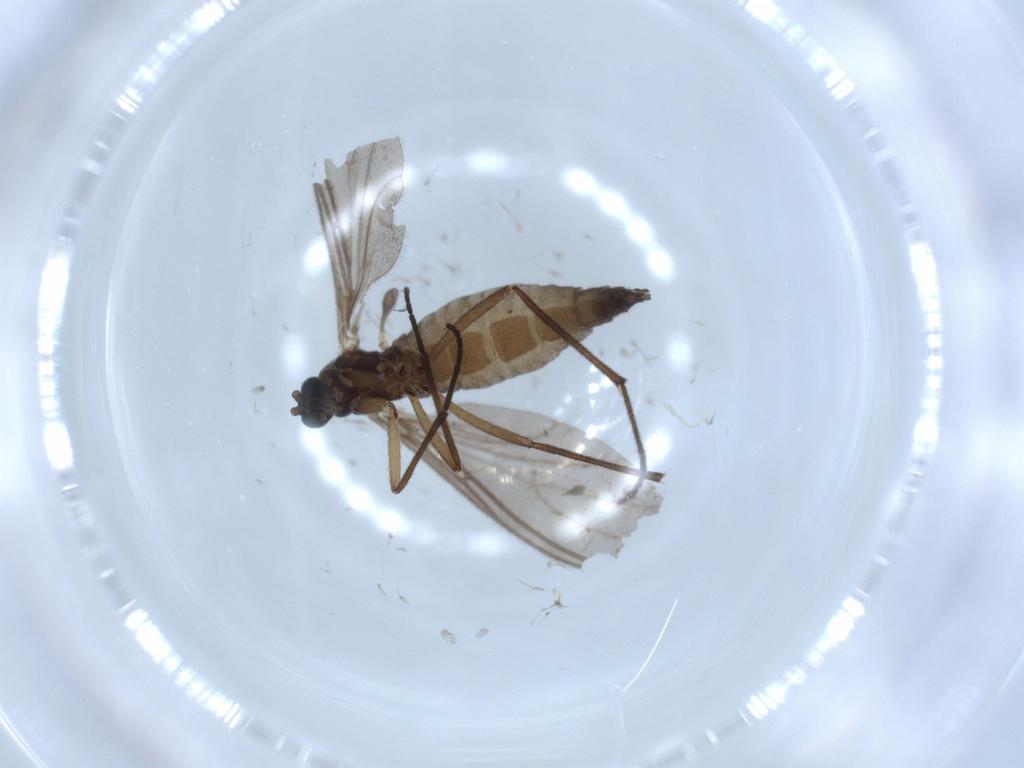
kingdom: Animalia
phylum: Arthropoda
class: Insecta
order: Diptera
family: Sciaridae
